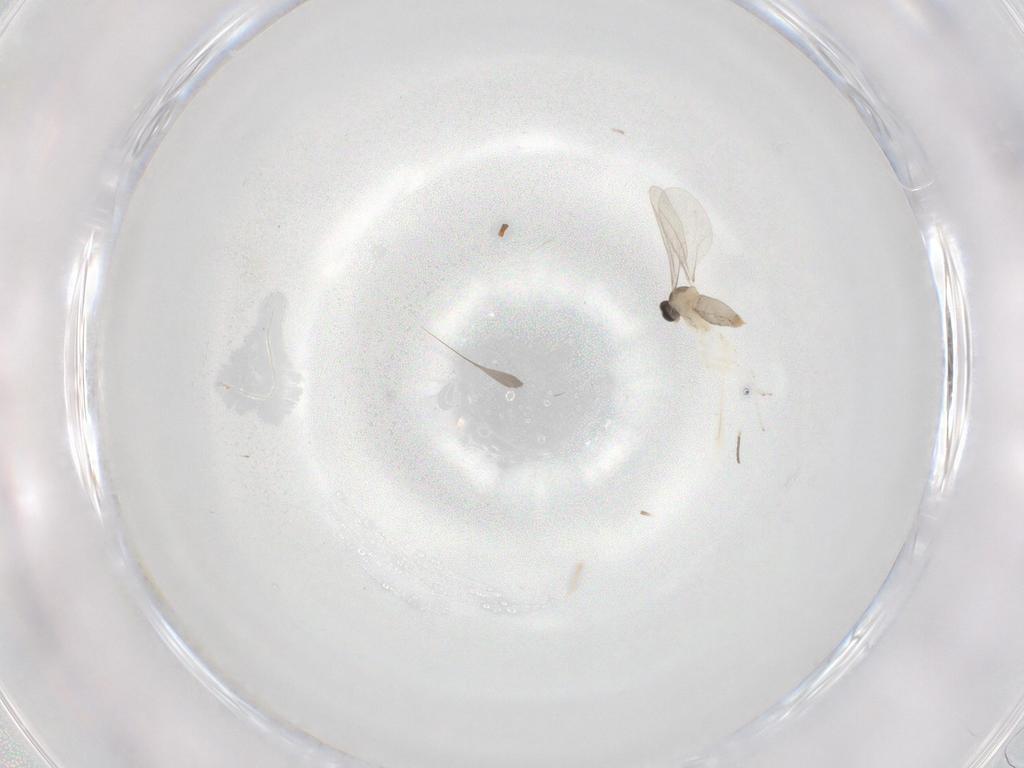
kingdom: Animalia
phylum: Arthropoda
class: Insecta
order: Diptera
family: Cecidomyiidae
